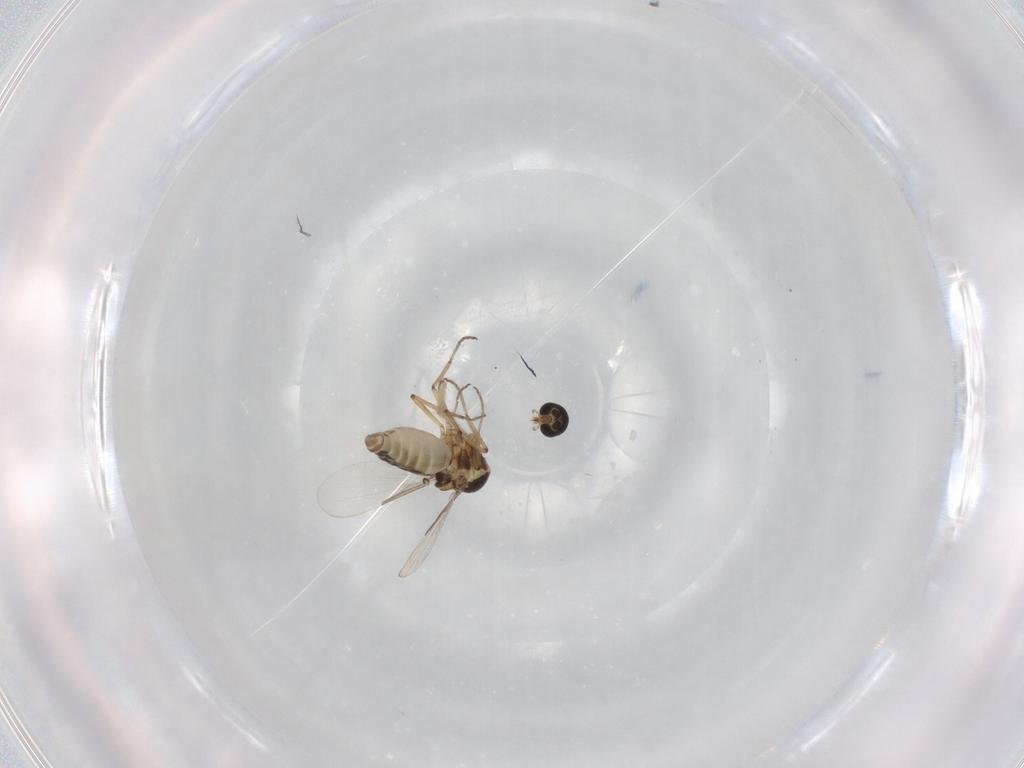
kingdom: Animalia
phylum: Arthropoda
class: Insecta
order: Diptera
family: Ceratopogonidae
